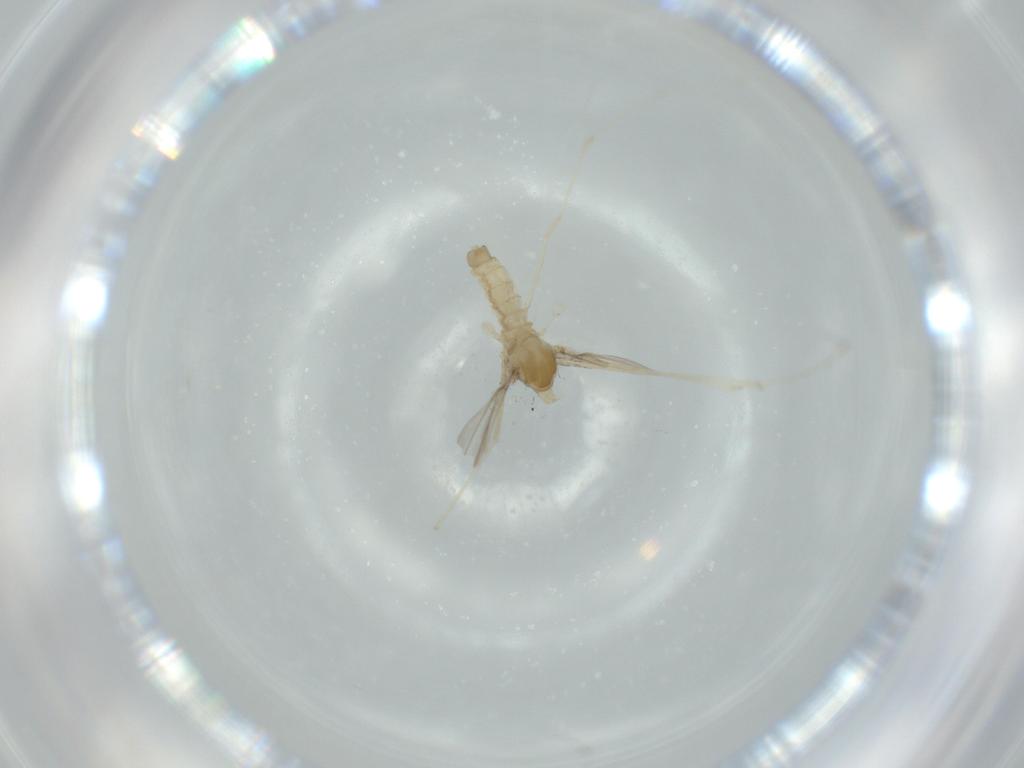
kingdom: Animalia
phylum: Arthropoda
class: Insecta
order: Diptera
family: Cecidomyiidae
